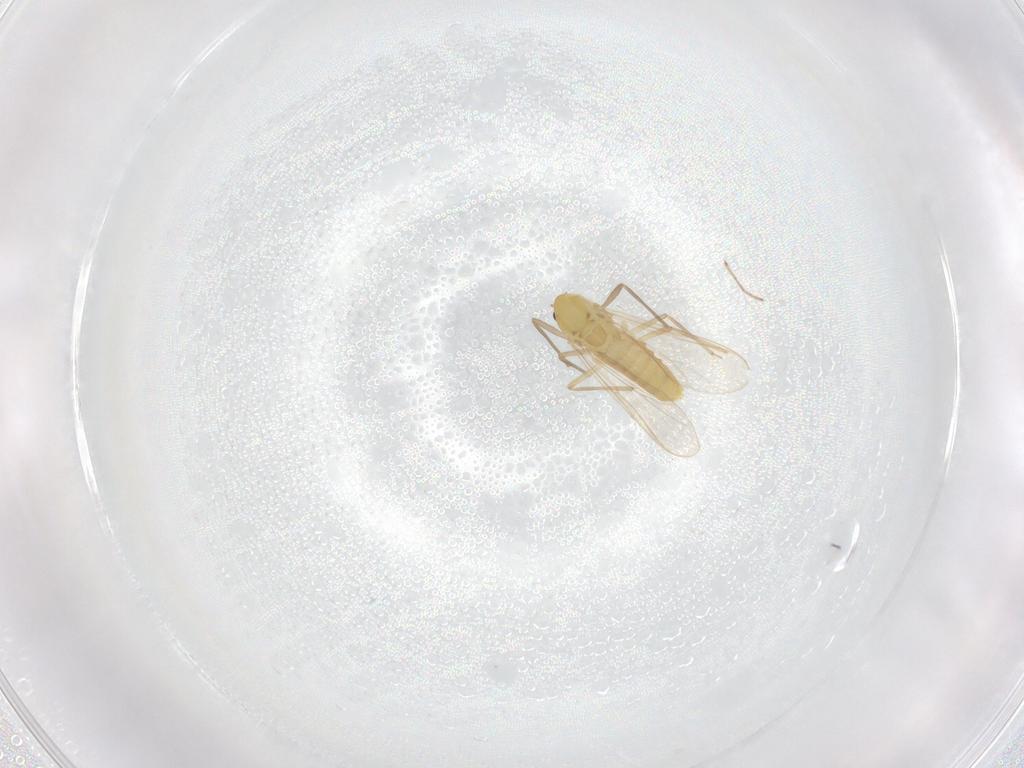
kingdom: Animalia
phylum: Arthropoda
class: Insecta
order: Diptera
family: Chironomidae
